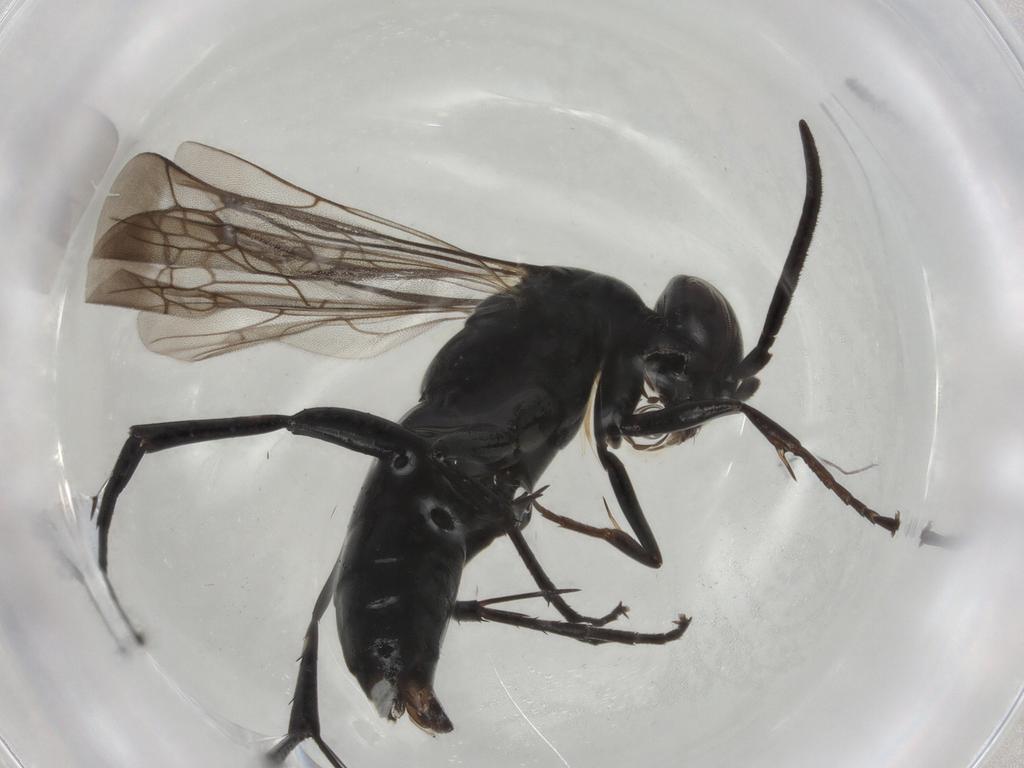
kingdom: Animalia
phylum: Arthropoda
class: Insecta
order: Hymenoptera
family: Pompilidae
